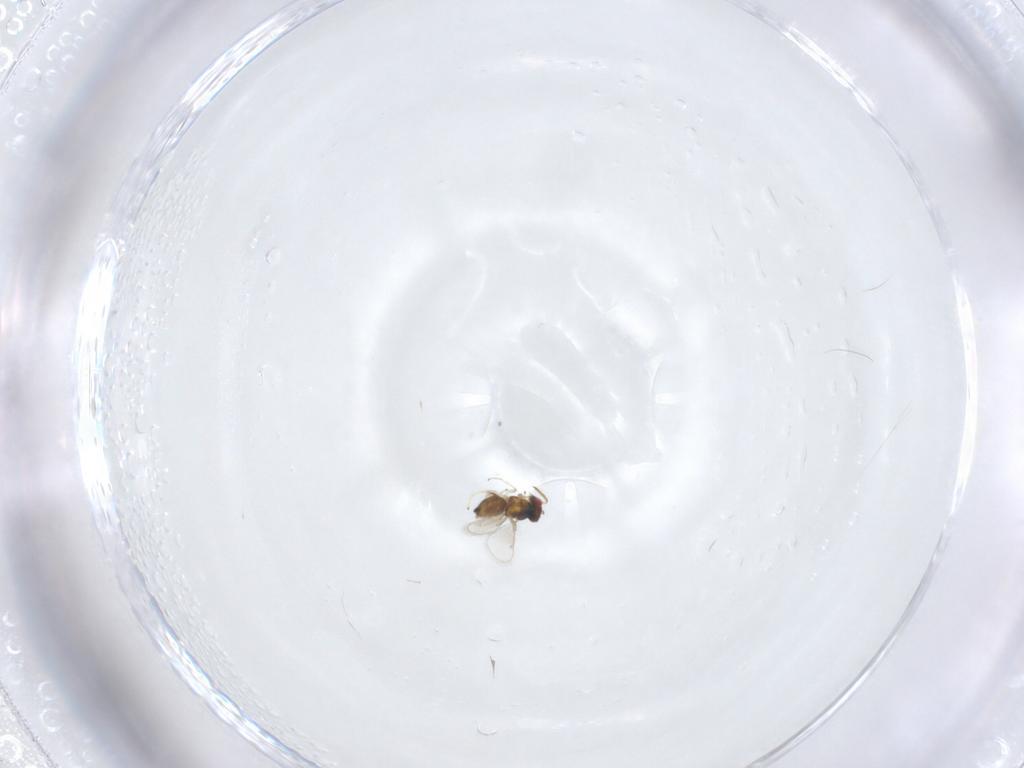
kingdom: Animalia
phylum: Arthropoda
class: Insecta
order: Hymenoptera
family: Eulophidae
